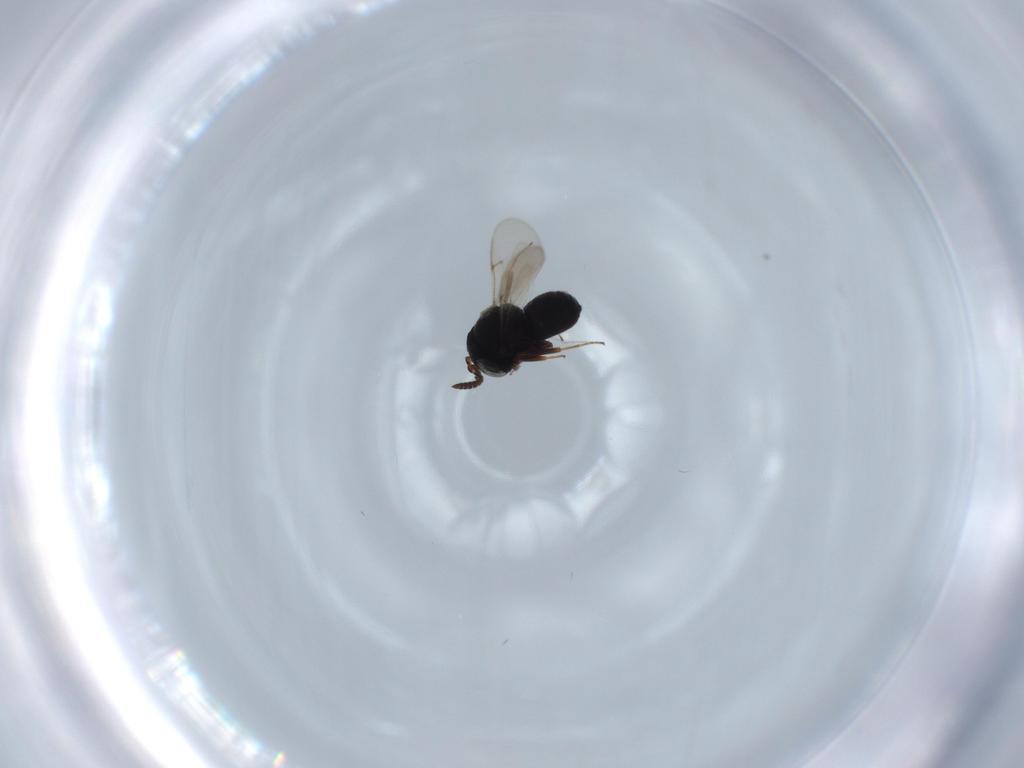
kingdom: Animalia
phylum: Arthropoda
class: Insecta
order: Hymenoptera
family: Scelionidae
